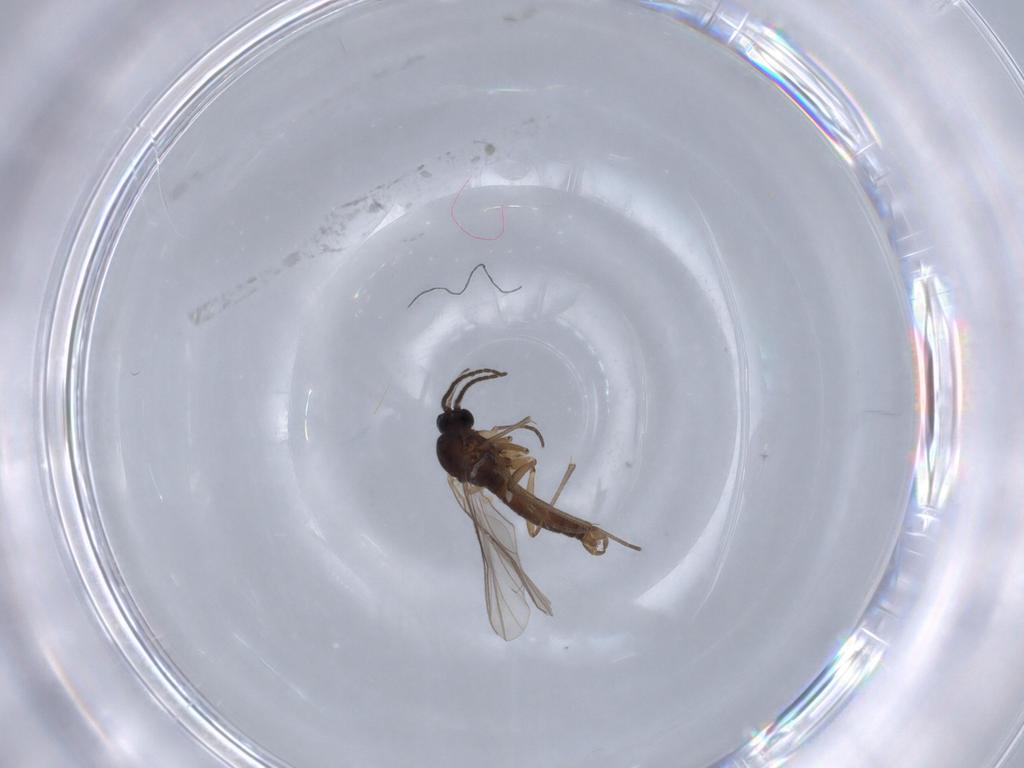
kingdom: Animalia
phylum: Arthropoda
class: Insecta
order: Diptera
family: Sciaridae
